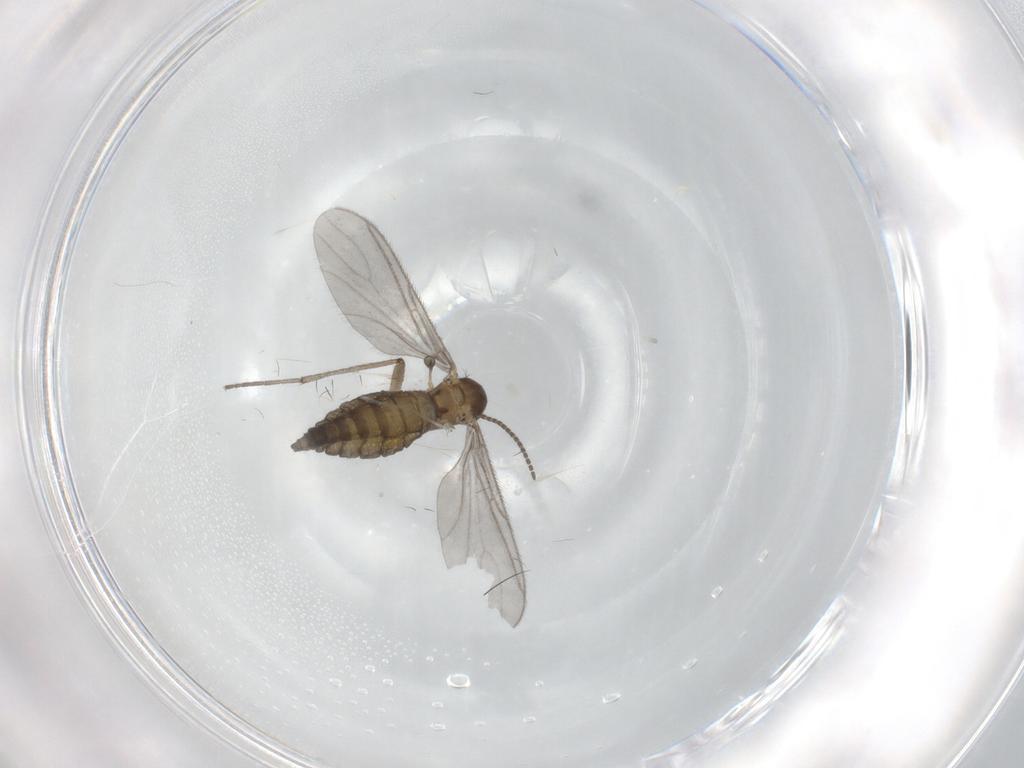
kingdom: Animalia
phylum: Arthropoda
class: Insecta
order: Diptera
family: Sciaridae
